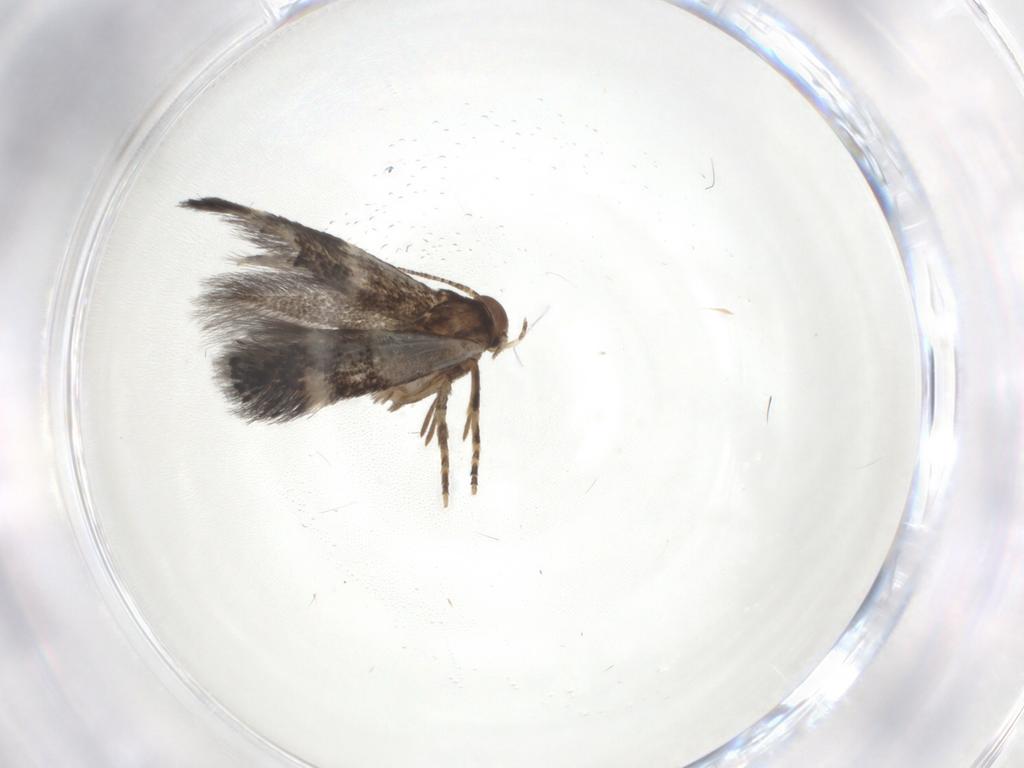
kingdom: Animalia
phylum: Arthropoda
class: Insecta
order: Lepidoptera
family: Elachistidae
